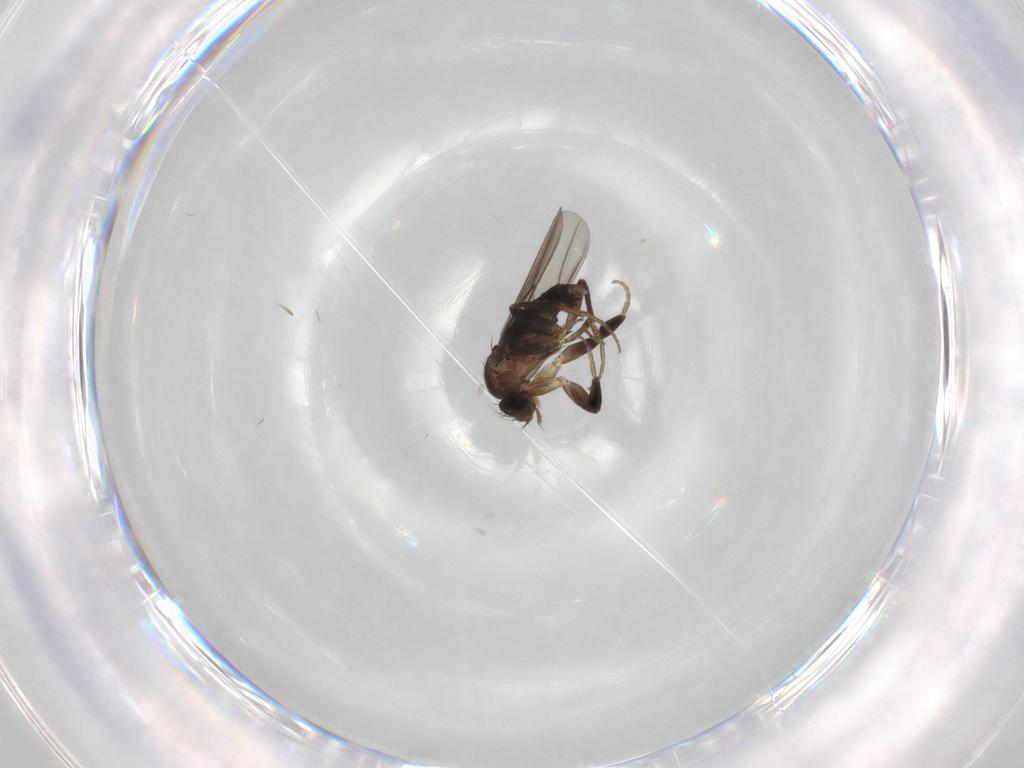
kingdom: Animalia
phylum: Arthropoda
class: Insecta
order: Diptera
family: Phoridae
